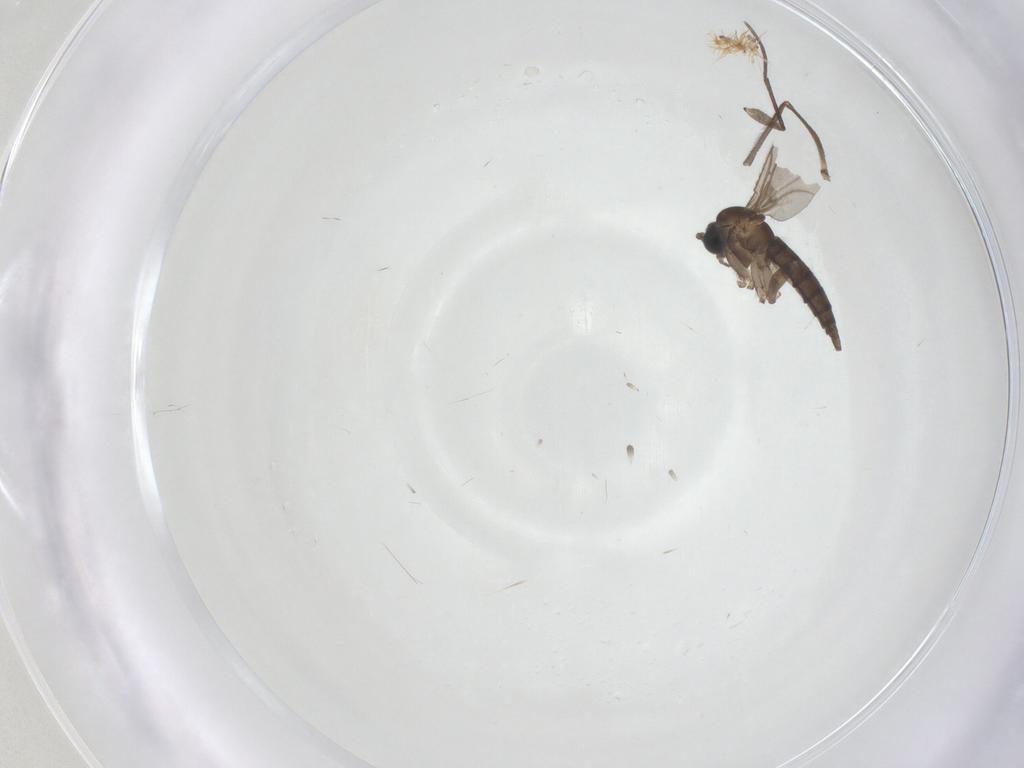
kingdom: Animalia
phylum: Arthropoda
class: Insecta
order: Diptera
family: Sciaridae
